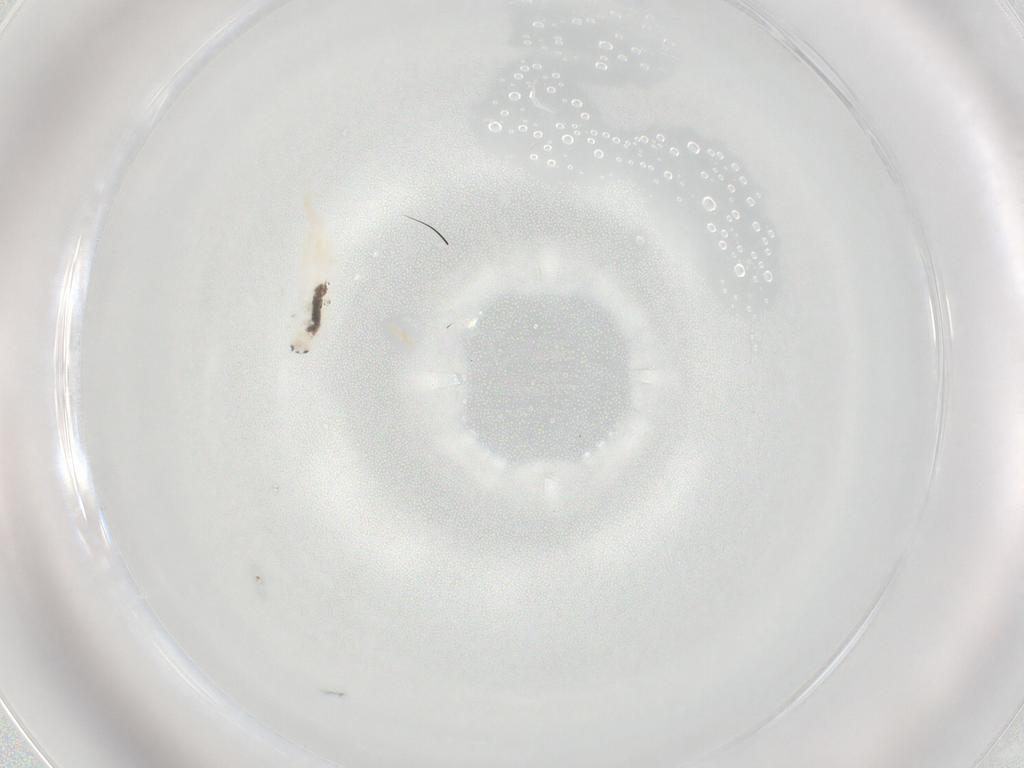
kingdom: Animalia
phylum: Arthropoda
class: Collembola
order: Entomobryomorpha
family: Entomobryidae
